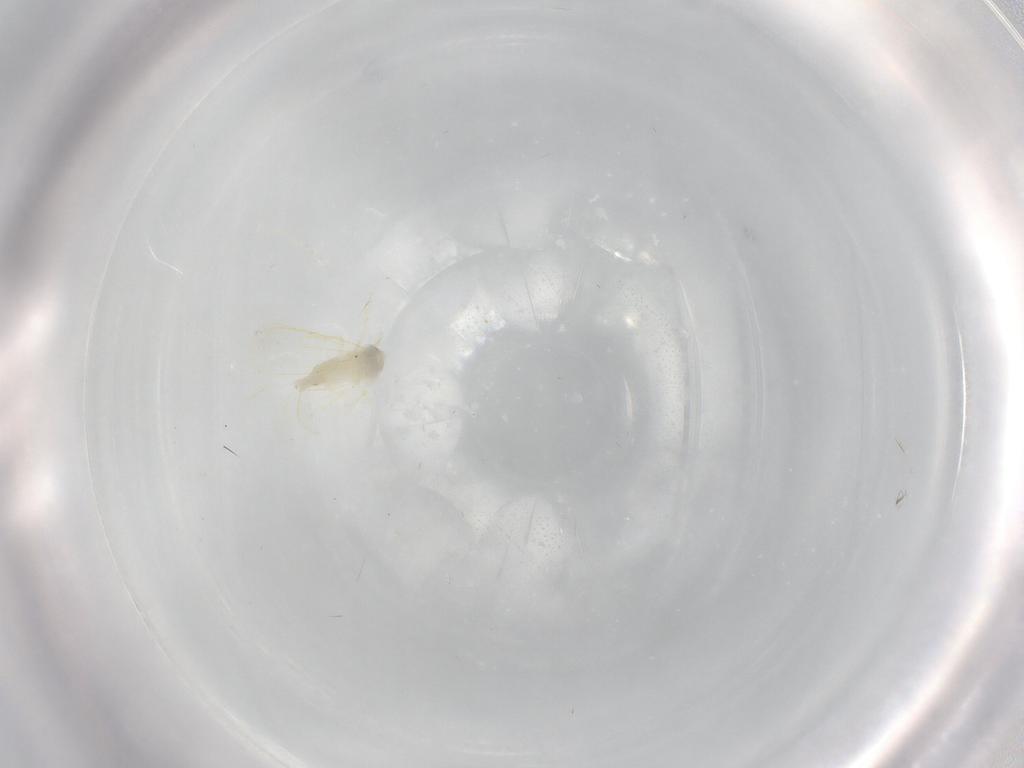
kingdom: Animalia
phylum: Arthropoda
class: Insecta
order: Hemiptera
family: Aleyrodidae
